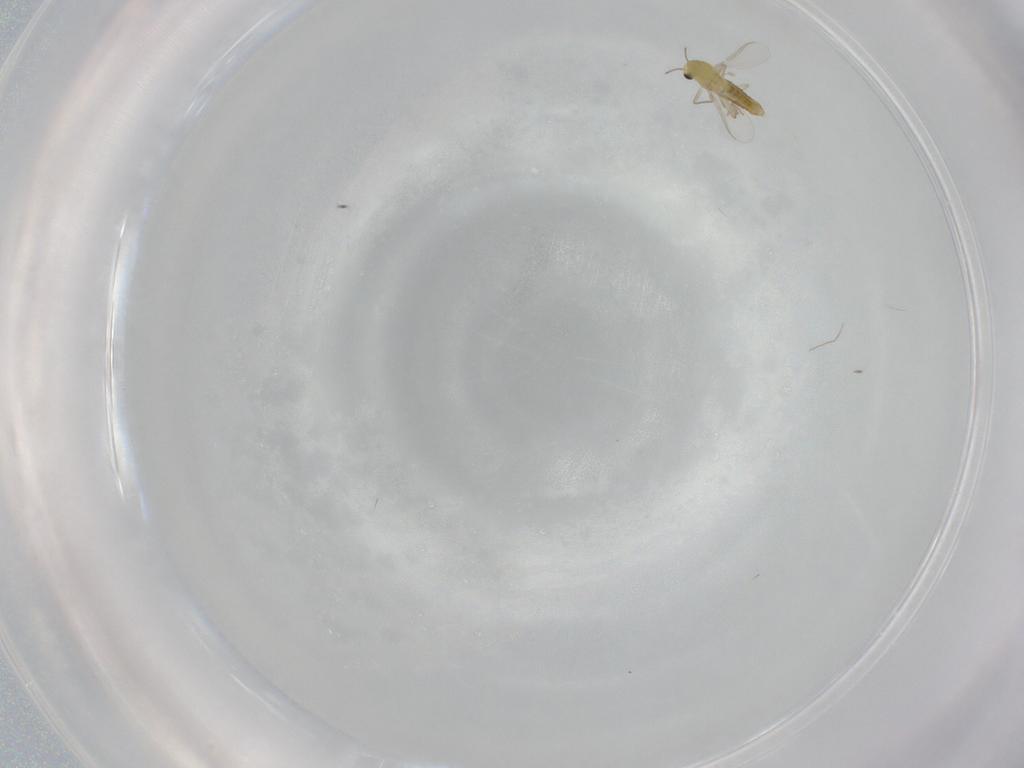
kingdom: Animalia
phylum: Arthropoda
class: Insecta
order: Diptera
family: Chironomidae
